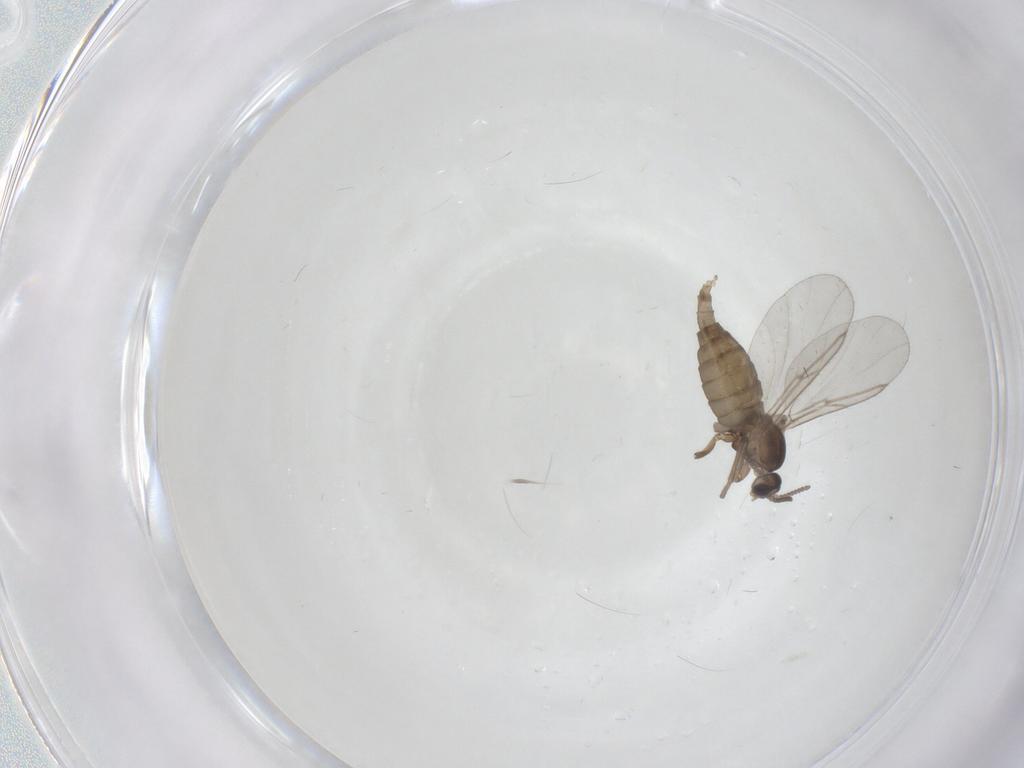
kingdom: Animalia
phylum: Arthropoda
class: Insecta
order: Diptera
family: Cecidomyiidae
